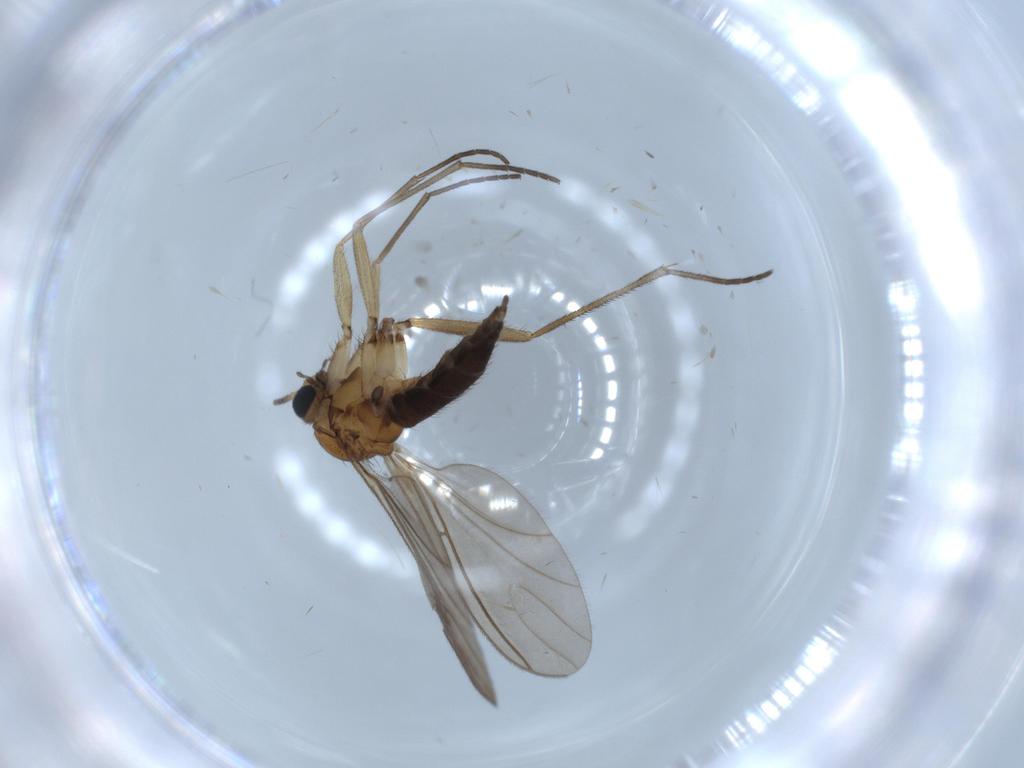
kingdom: Animalia
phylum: Arthropoda
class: Insecta
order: Diptera
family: Sciaridae
